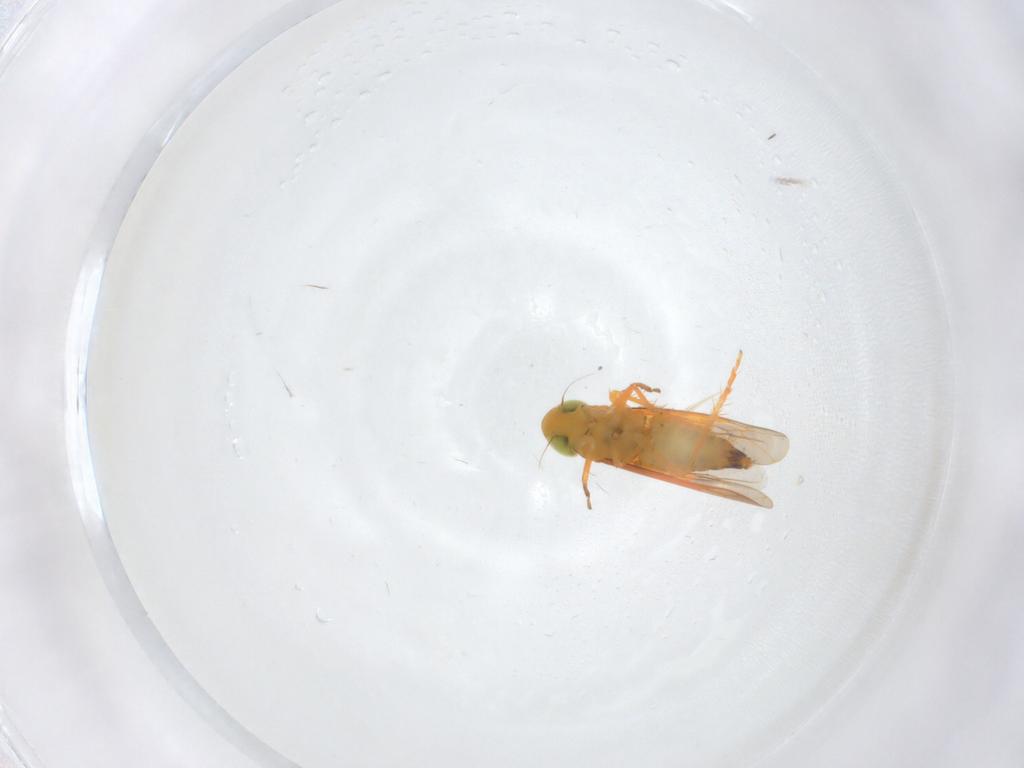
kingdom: Animalia
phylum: Arthropoda
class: Insecta
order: Hemiptera
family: Cicadellidae
